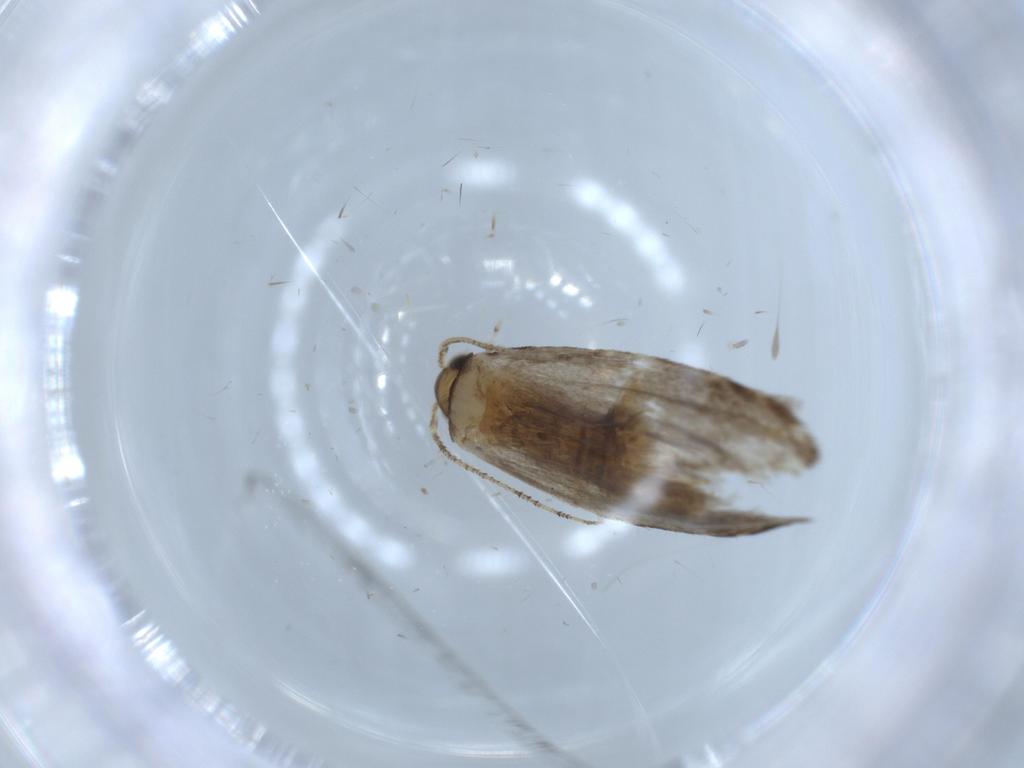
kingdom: Animalia
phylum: Arthropoda
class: Insecta
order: Lepidoptera
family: Tineidae
